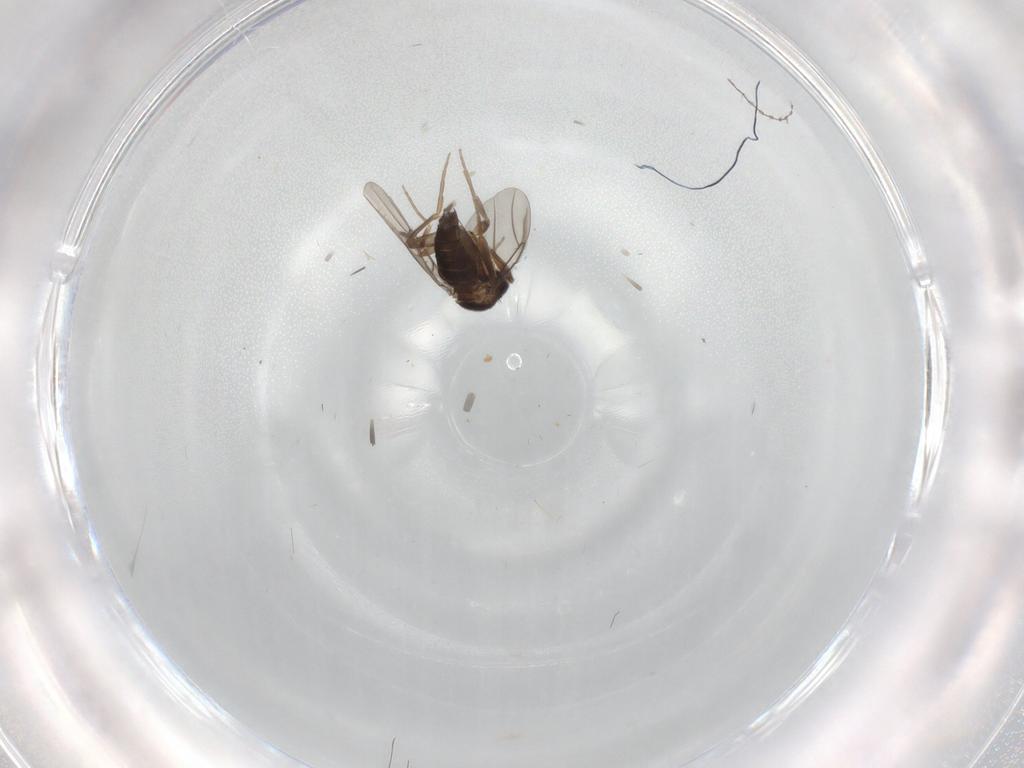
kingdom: Animalia
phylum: Arthropoda
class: Insecta
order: Diptera
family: Phoridae
